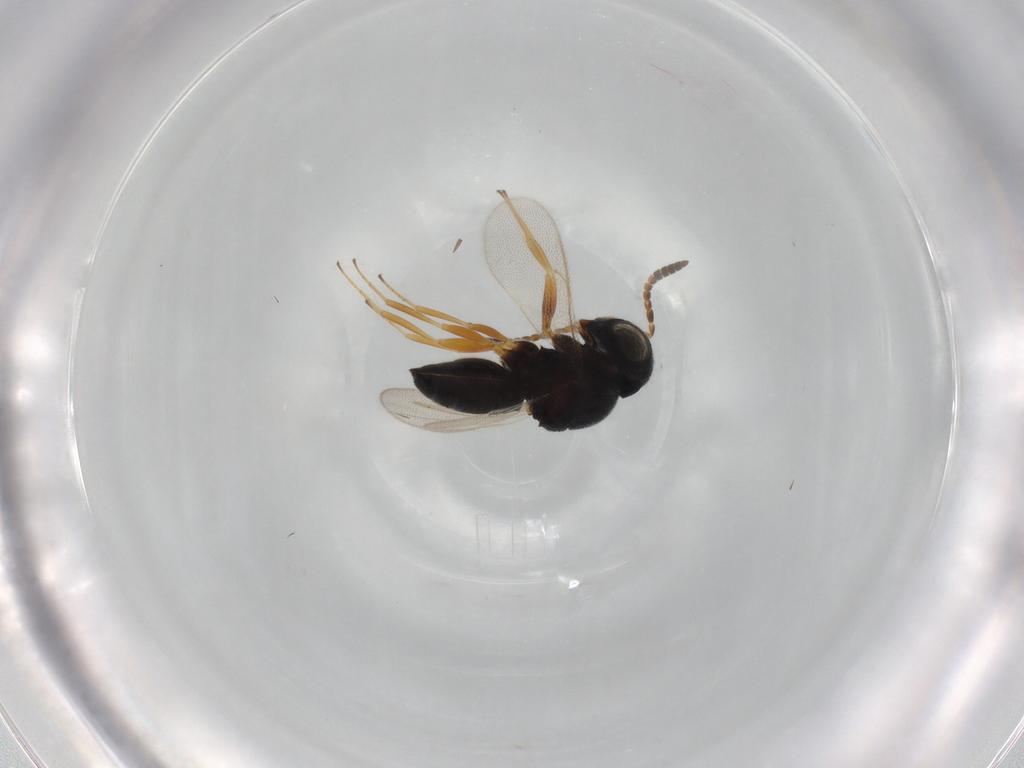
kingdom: Animalia
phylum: Arthropoda
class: Insecta
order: Hymenoptera
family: Scelionidae
